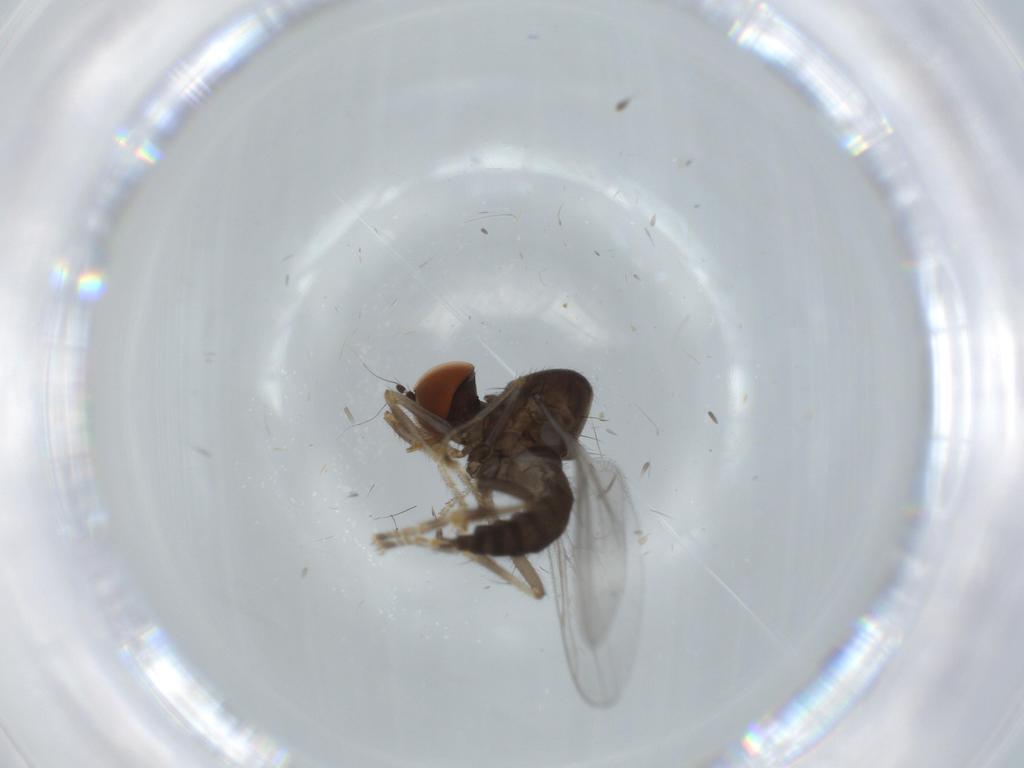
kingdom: Animalia
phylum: Arthropoda
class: Insecta
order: Diptera
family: Hybotidae
